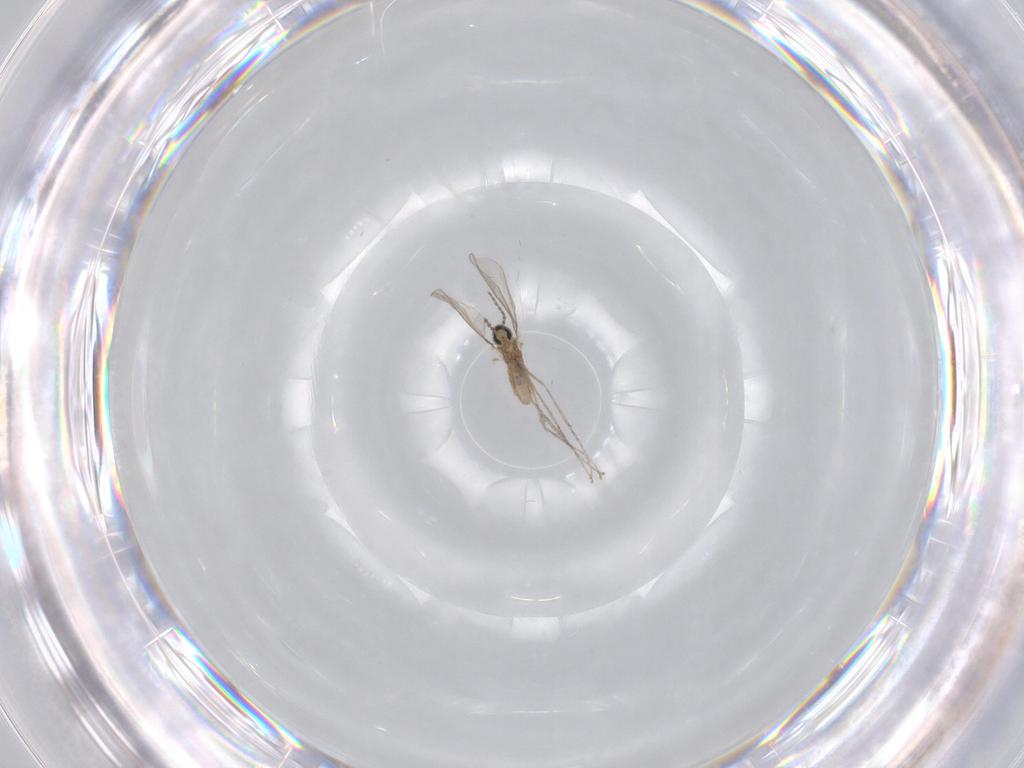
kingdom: Animalia
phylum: Arthropoda
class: Insecta
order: Diptera
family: Cecidomyiidae
